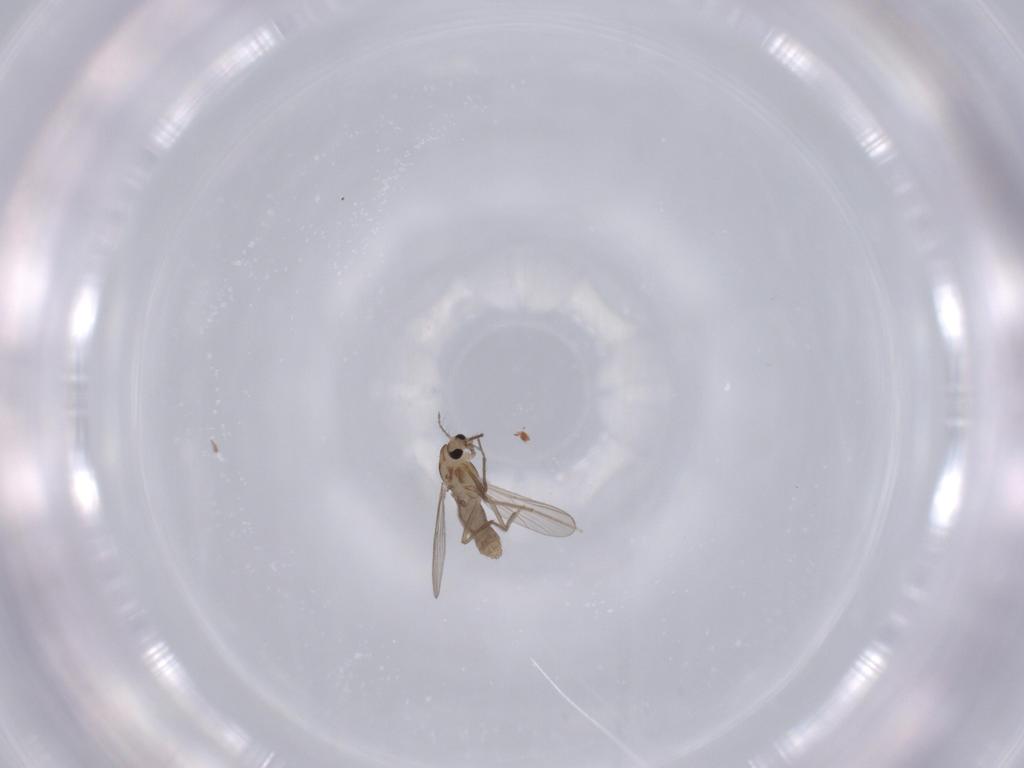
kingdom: Animalia
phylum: Arthropoda
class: Insecta
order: Diptera
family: Chironomidae
